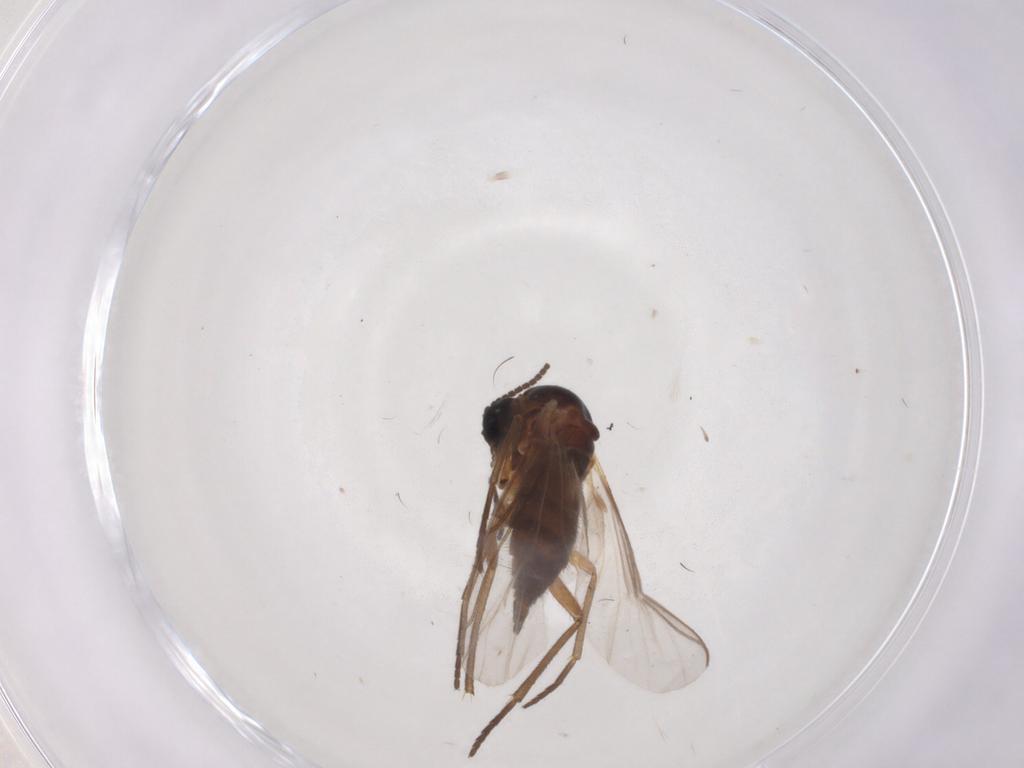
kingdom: Animalia
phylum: Arthropoda
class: Insecta
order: Diptera
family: Sciaridae
